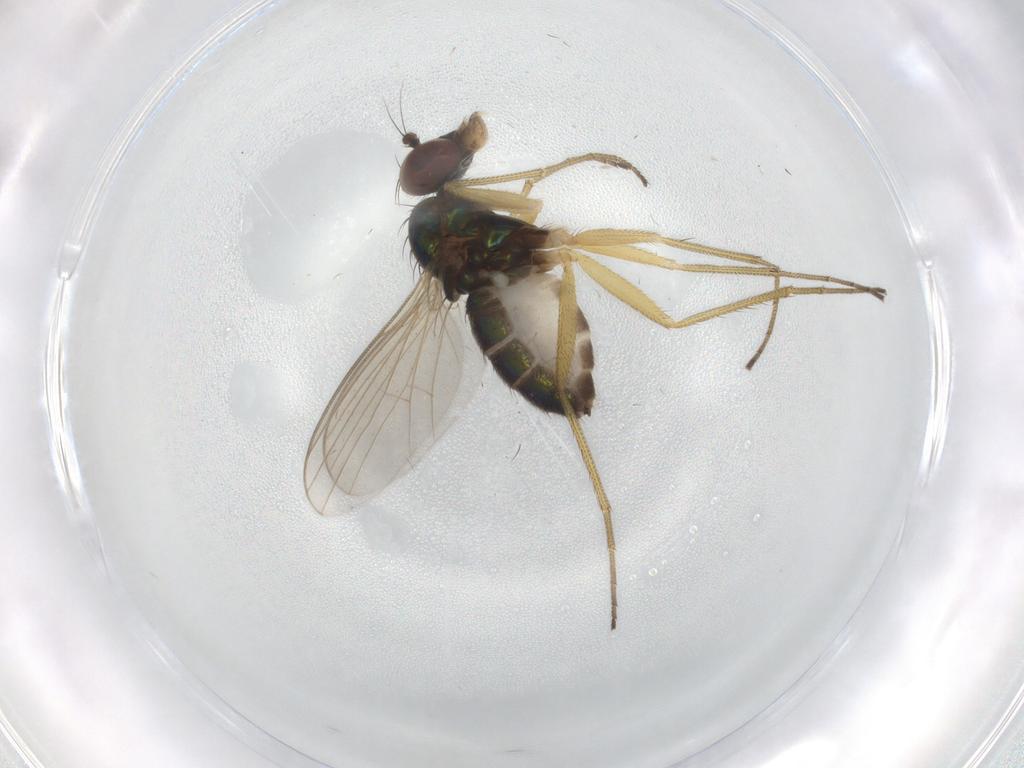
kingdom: Animalia
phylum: Arthropoda
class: Insecta
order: Diptera
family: Dolichopodidae
